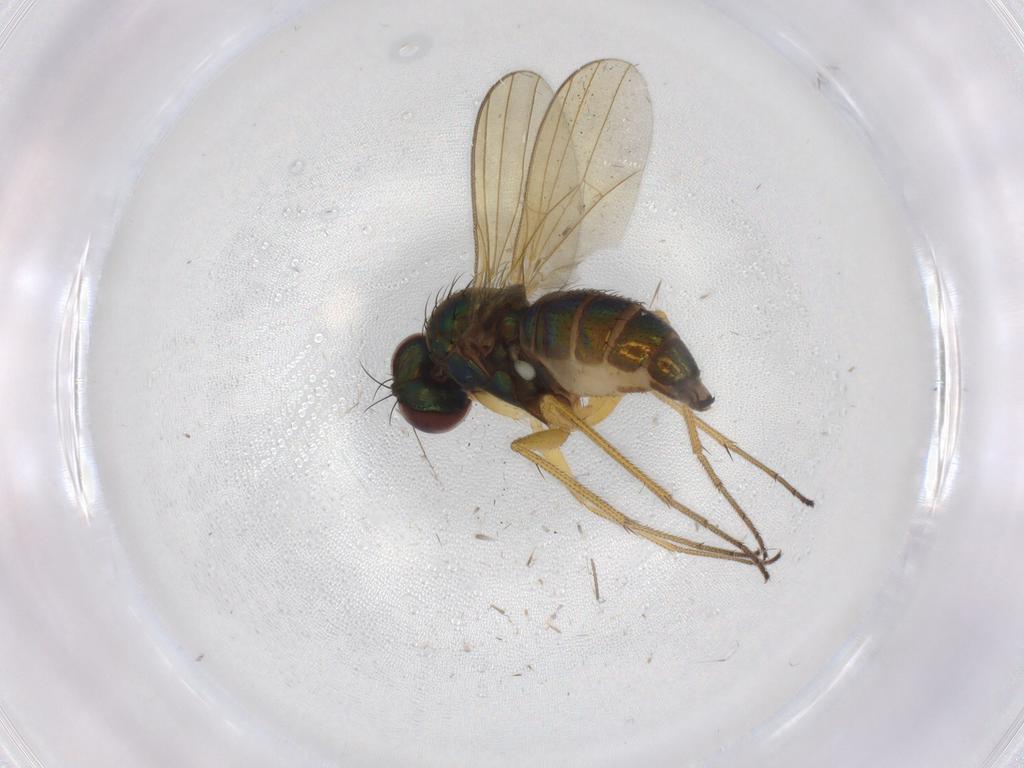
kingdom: Animalia
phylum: Arthropoda
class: Insecta
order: Diptera
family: Dolichopodidae
